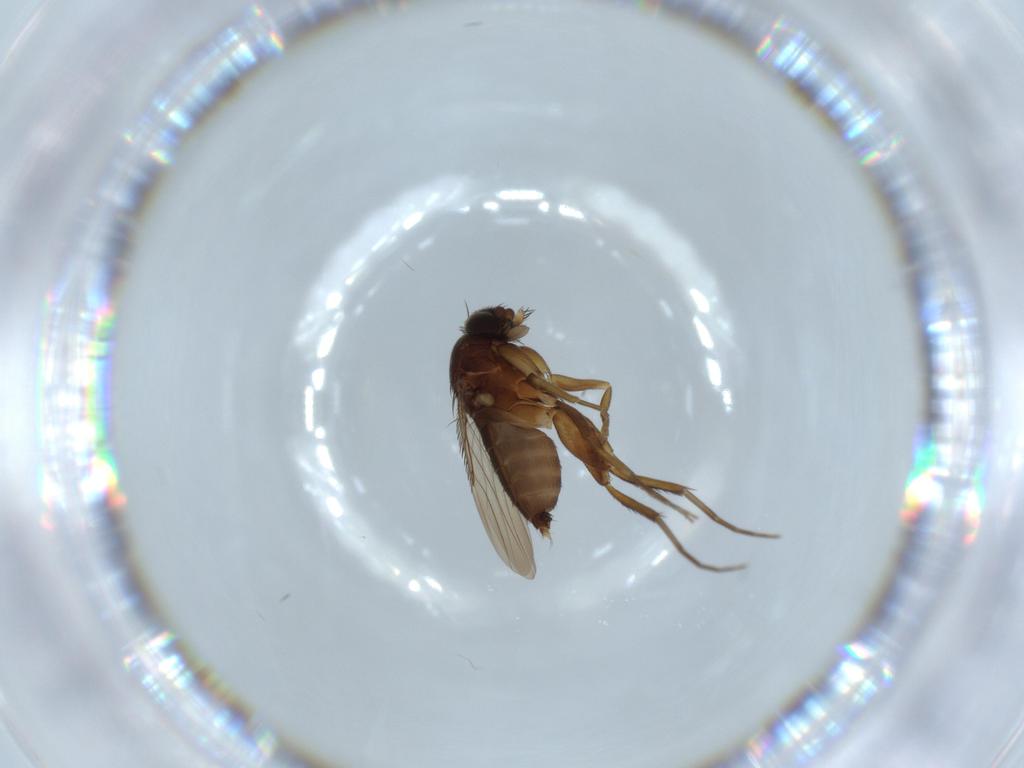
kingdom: Animalia
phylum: Arthropoda
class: Insecta
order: Diptera
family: Phoridae
